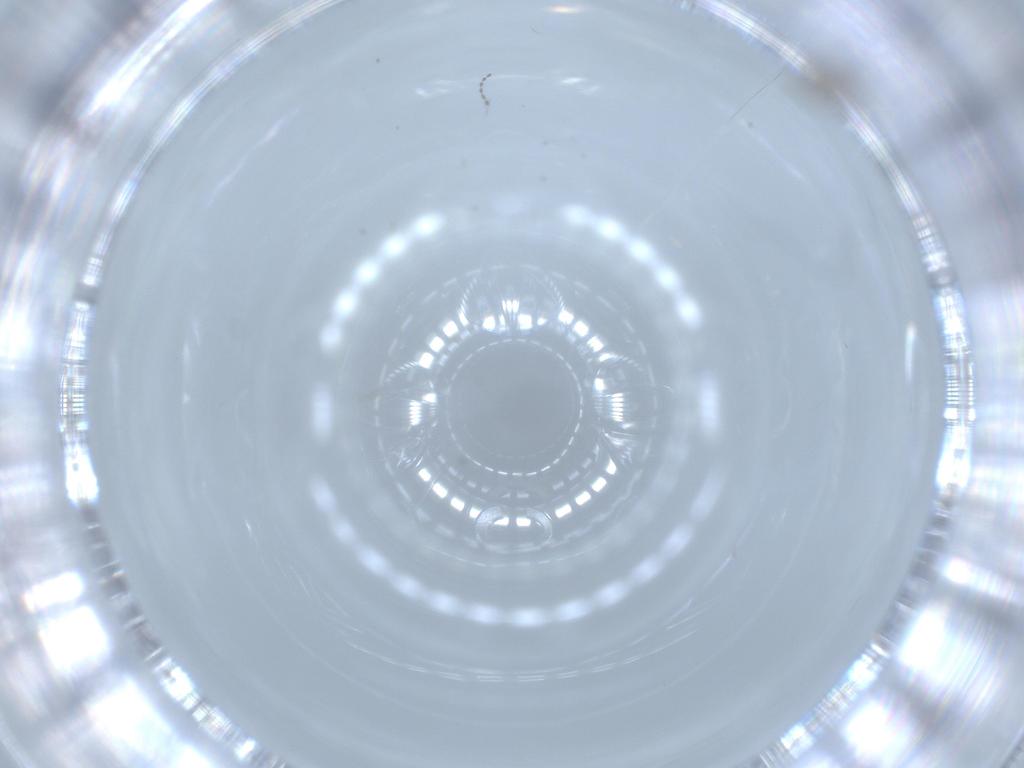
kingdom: Animalia
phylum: Arthropoda
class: Insecta
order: Diptera
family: Cecidomyiidae
